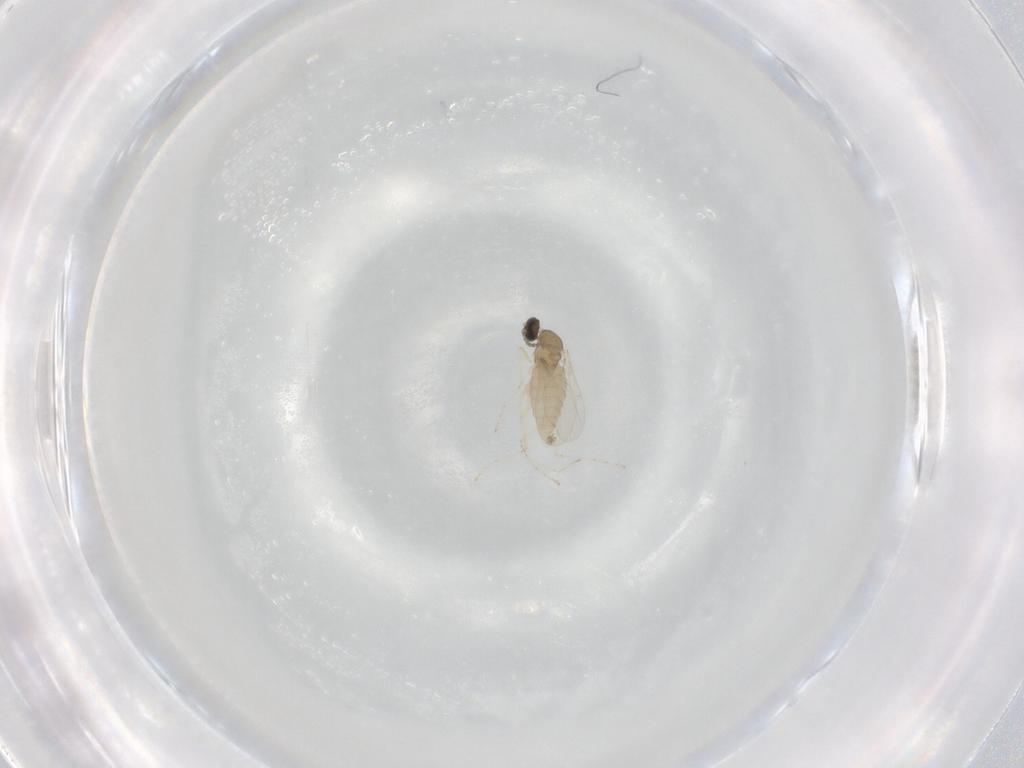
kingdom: Animalia
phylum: Arthropoda
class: Insecta
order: Diptera
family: Cecidomyiidae
